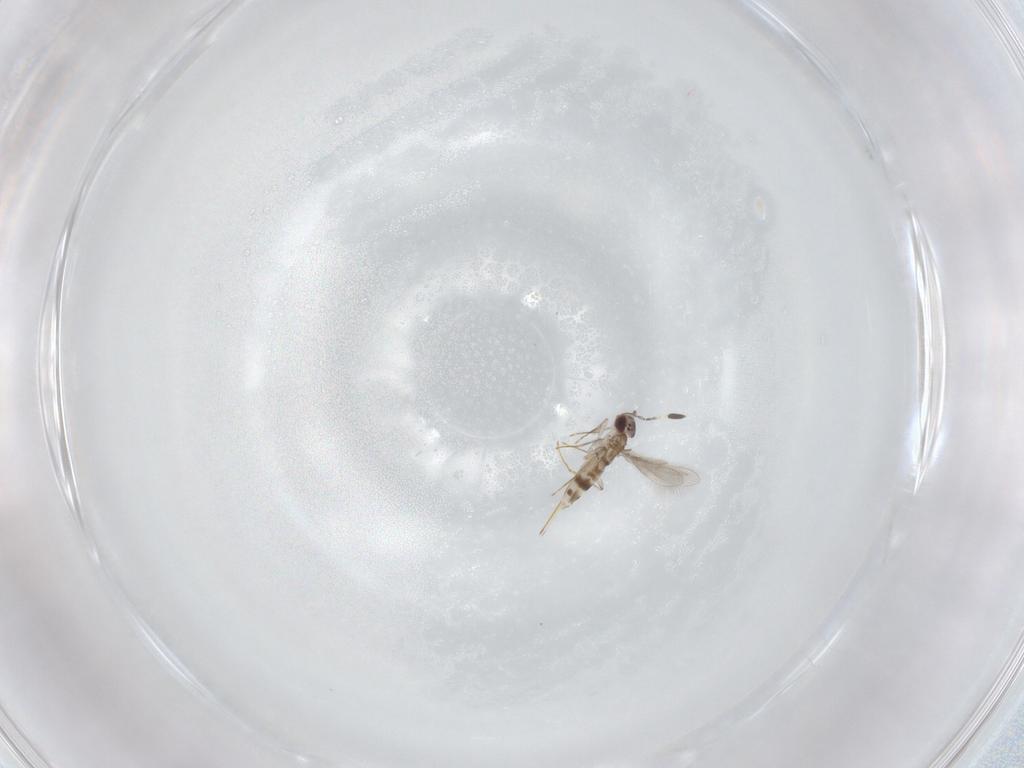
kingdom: Animalia
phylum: Arthropoda
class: Insecta
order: Hymenoptera
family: Mymaridae
